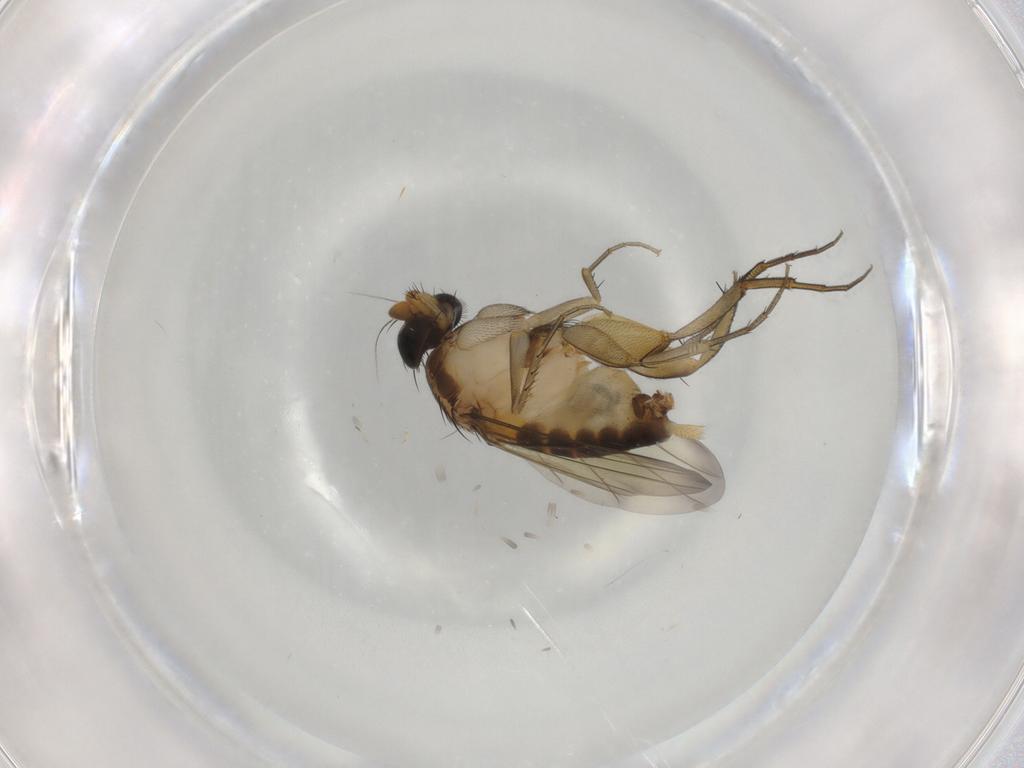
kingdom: Animalia
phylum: Arthropoda
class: Insecta
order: Diptera
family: Phoridae
